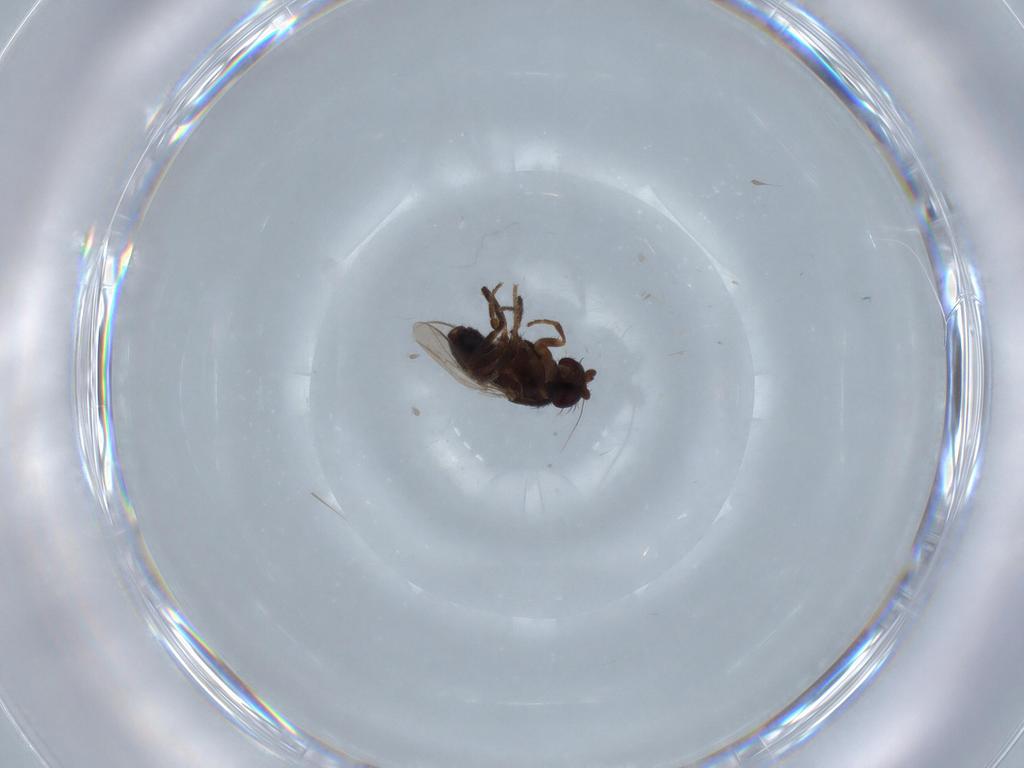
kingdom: Animalia
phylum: Arthropoda
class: Insecta
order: Diptera
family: Sphaeroceridae
